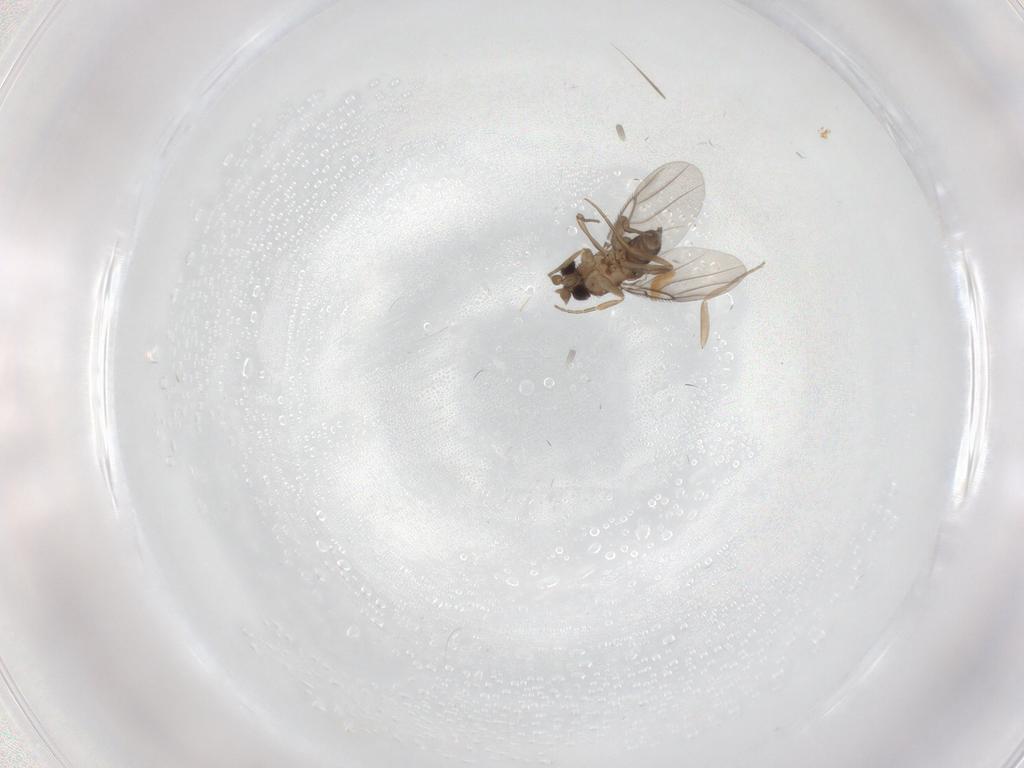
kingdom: Animalia
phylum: Arthropoda
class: Insecta
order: Diptera
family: Phoridae
